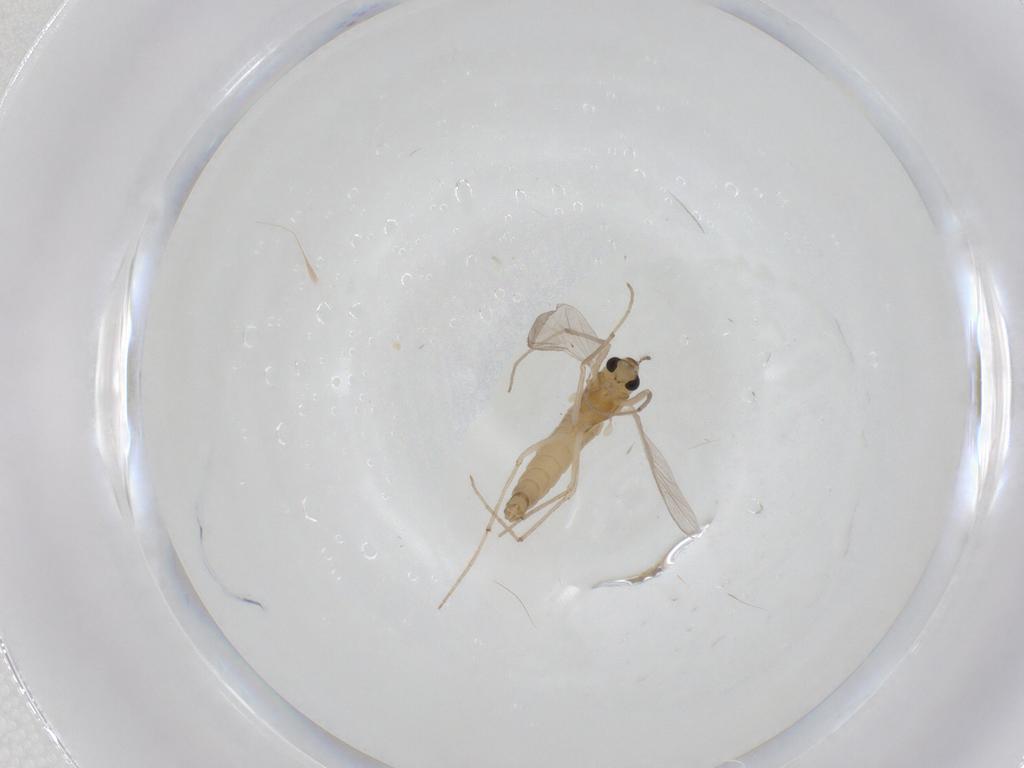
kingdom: Animalia
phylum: Arthropoda
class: Insecta
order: Diptera
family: Chironomidae
